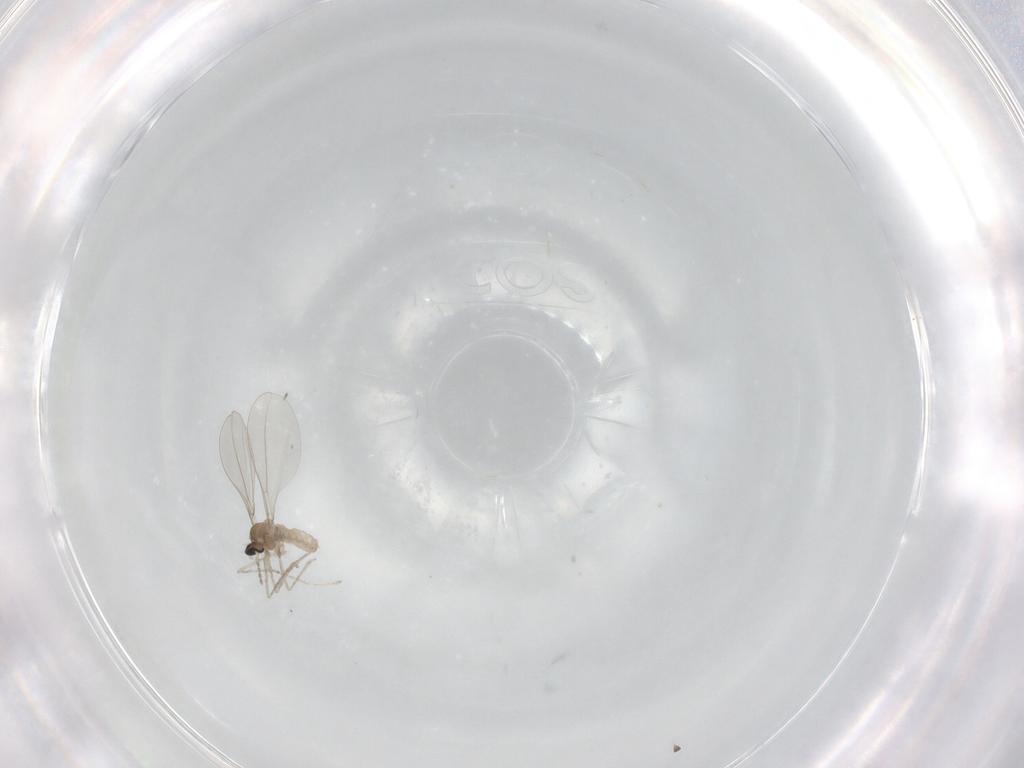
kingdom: Animalia
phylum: Arthropoda
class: Insecta
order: Diptera
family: Cecidomyiidae
